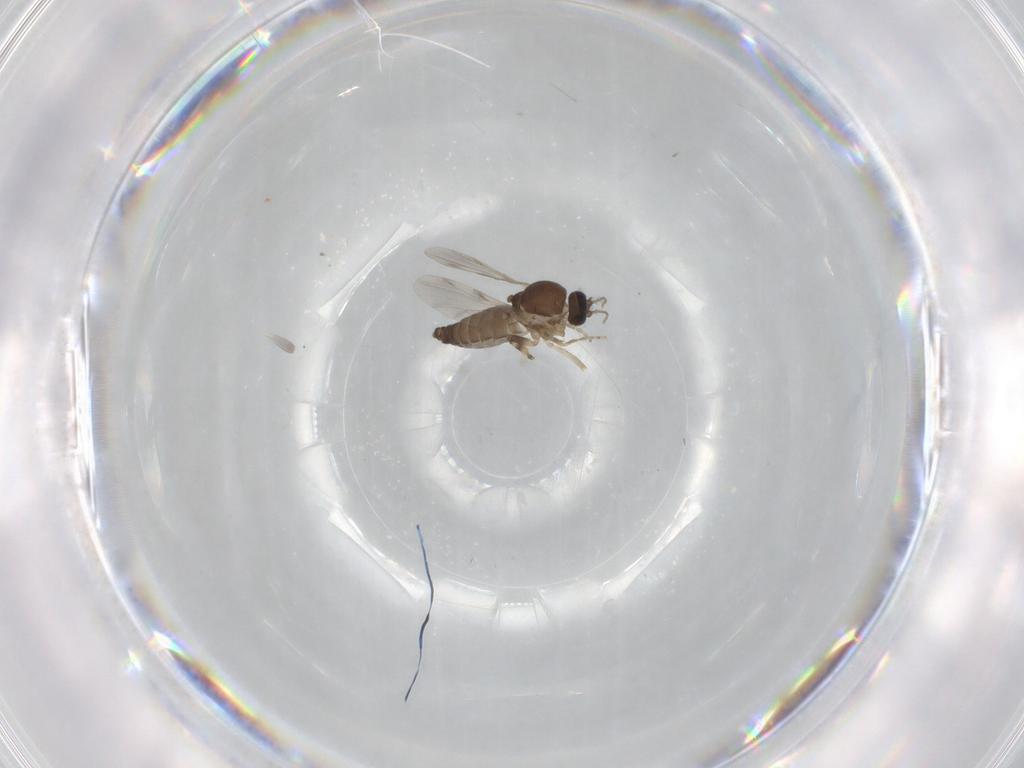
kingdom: Animalia
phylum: Arthropoda
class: Insecta
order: Diptera
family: Ceratopogonidae
